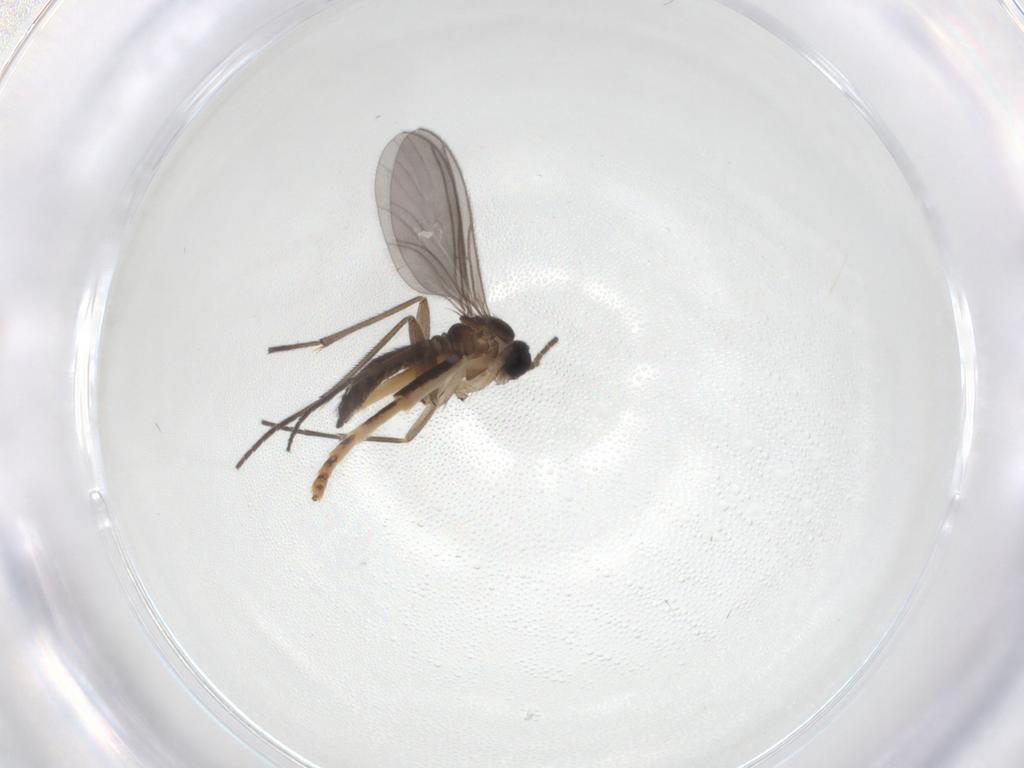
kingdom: Animalia
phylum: Arthropoda
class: Insecta
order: Diptera
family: Sciaridae
